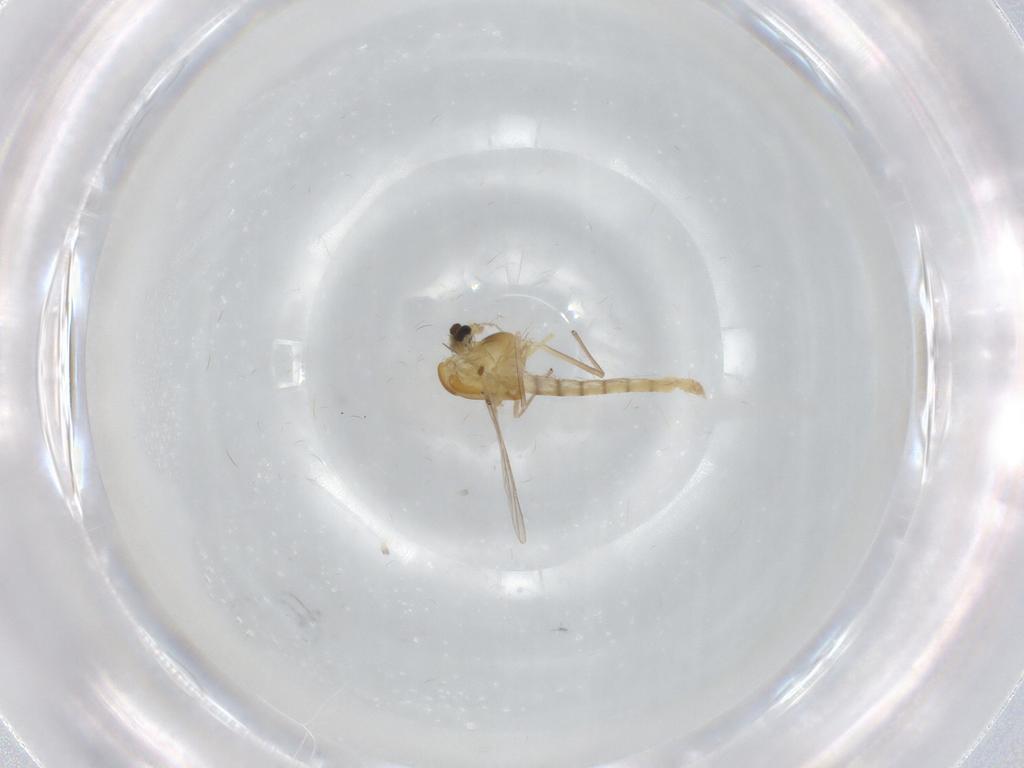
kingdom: Animalia
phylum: Arthropoda
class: Insecta
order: Diptera
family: Chironomidae
